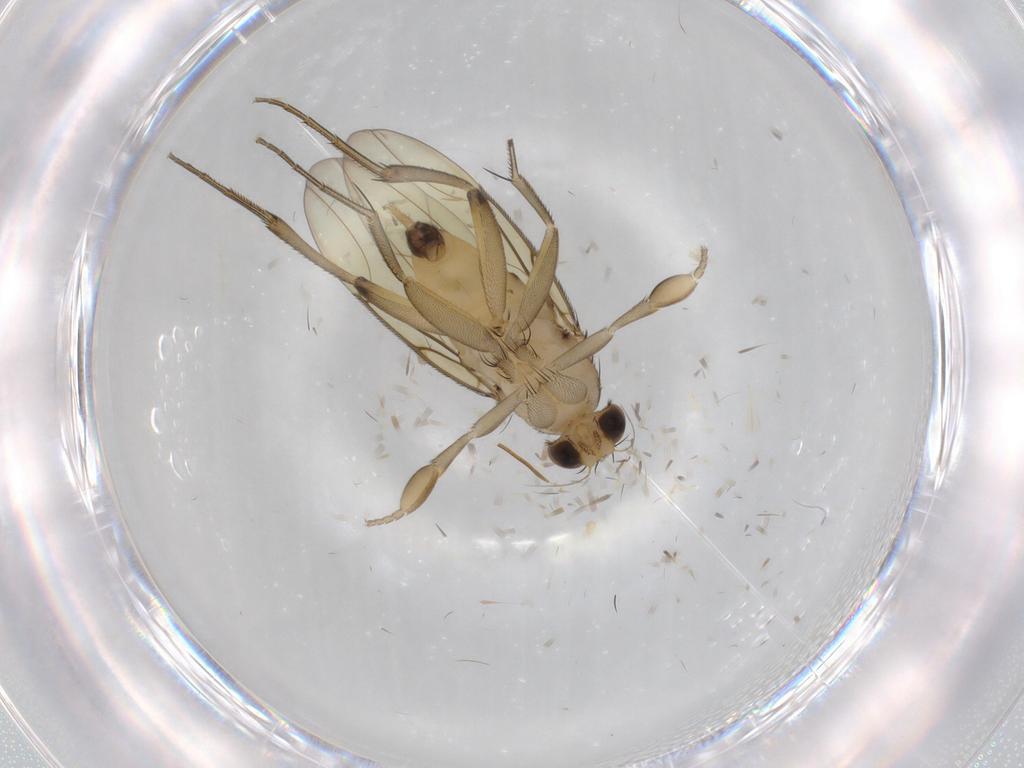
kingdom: Animalia
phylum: Arthropoda
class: Insecta
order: Diptera
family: Phoridae
